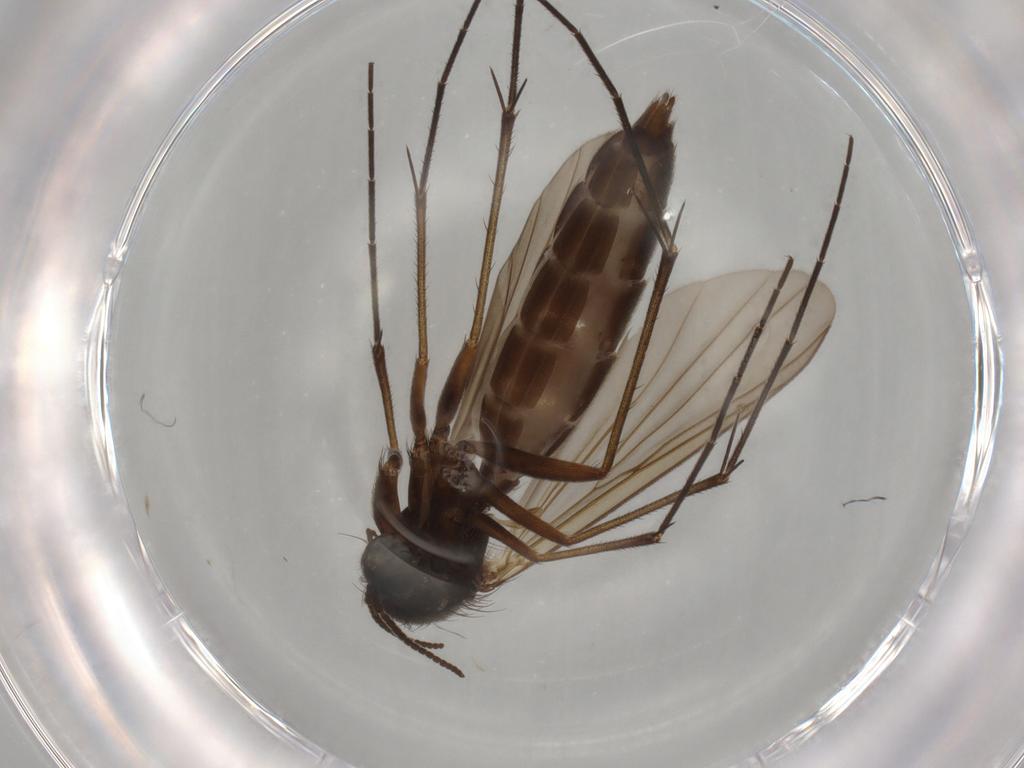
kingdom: Animalia
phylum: Arthropoda
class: Insecta
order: Diptera
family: Mycetophilidae
